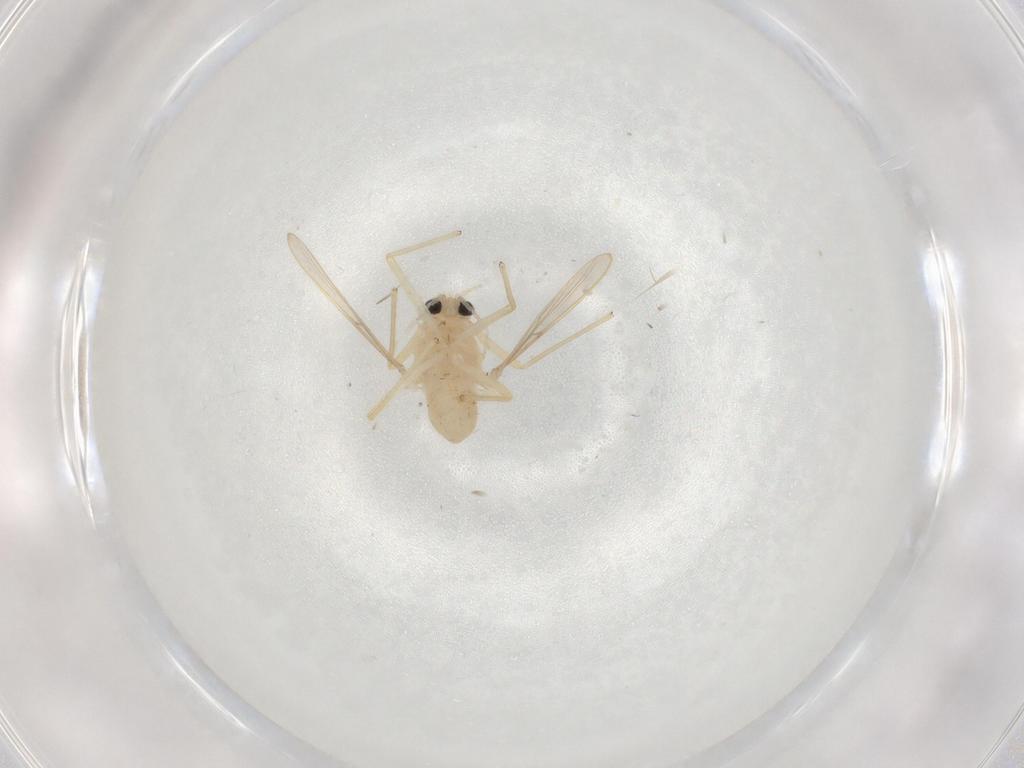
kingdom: Animalia
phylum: Arthropoda
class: Insecta
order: Diptera
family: Chironomidae
